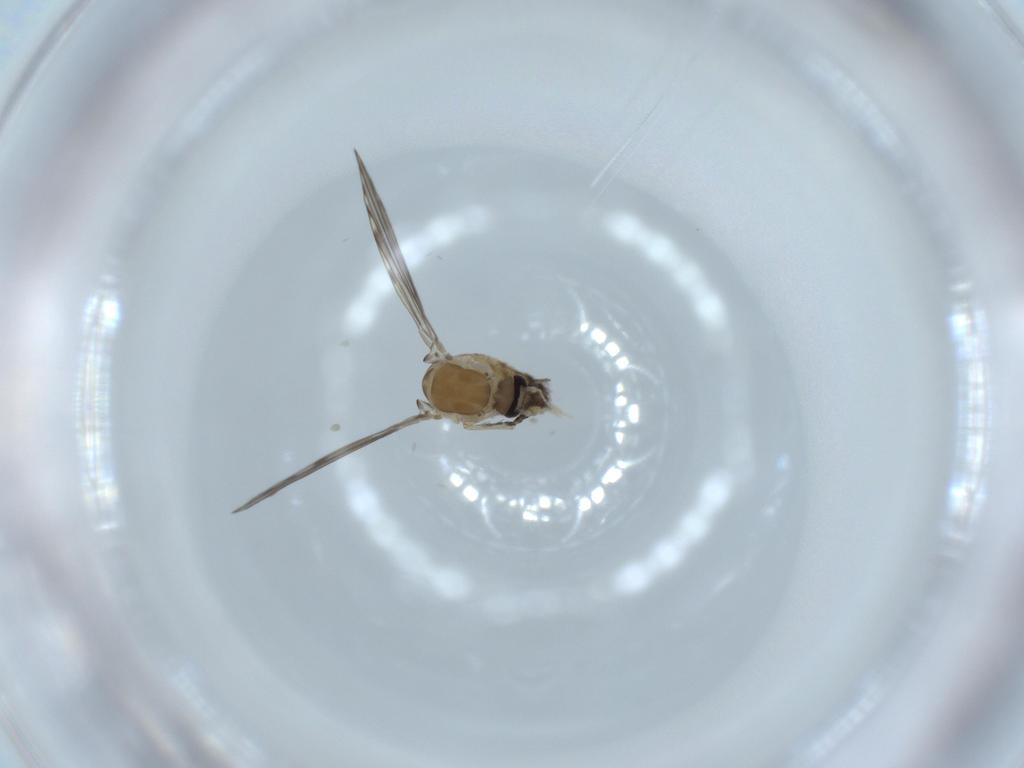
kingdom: Animalia
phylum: Arthropoda
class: Insecta
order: Diptera
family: Psychodidae
